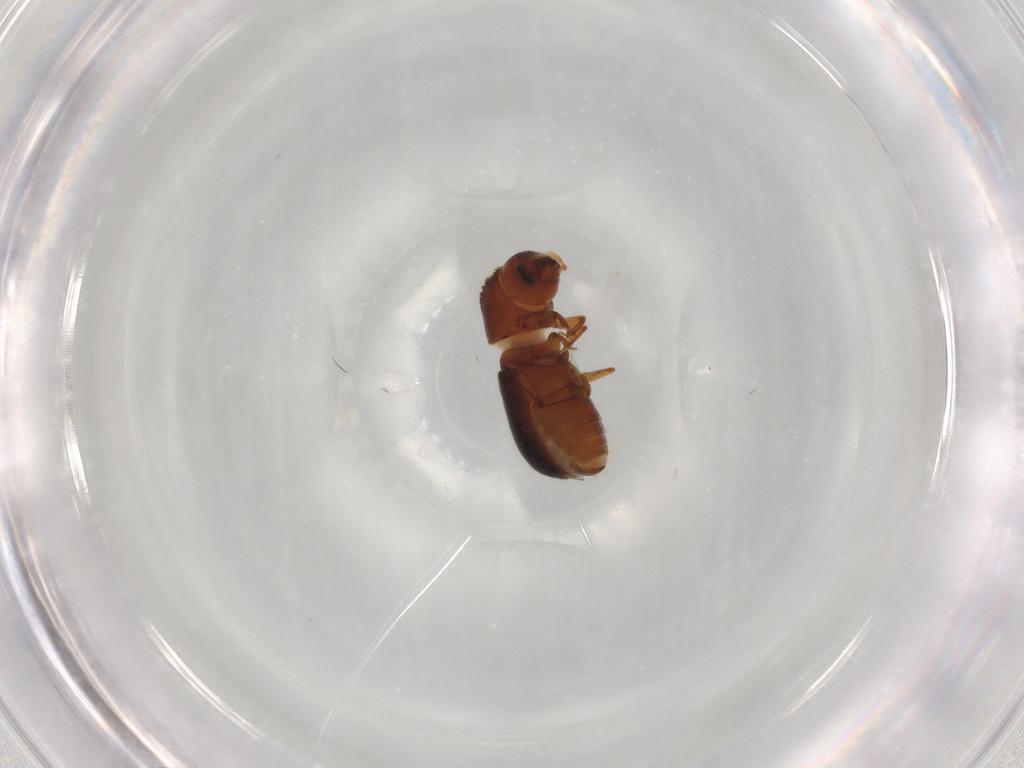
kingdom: Animalia
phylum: Arthropoda
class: Insecta
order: Coleoptera
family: Curculionidae
